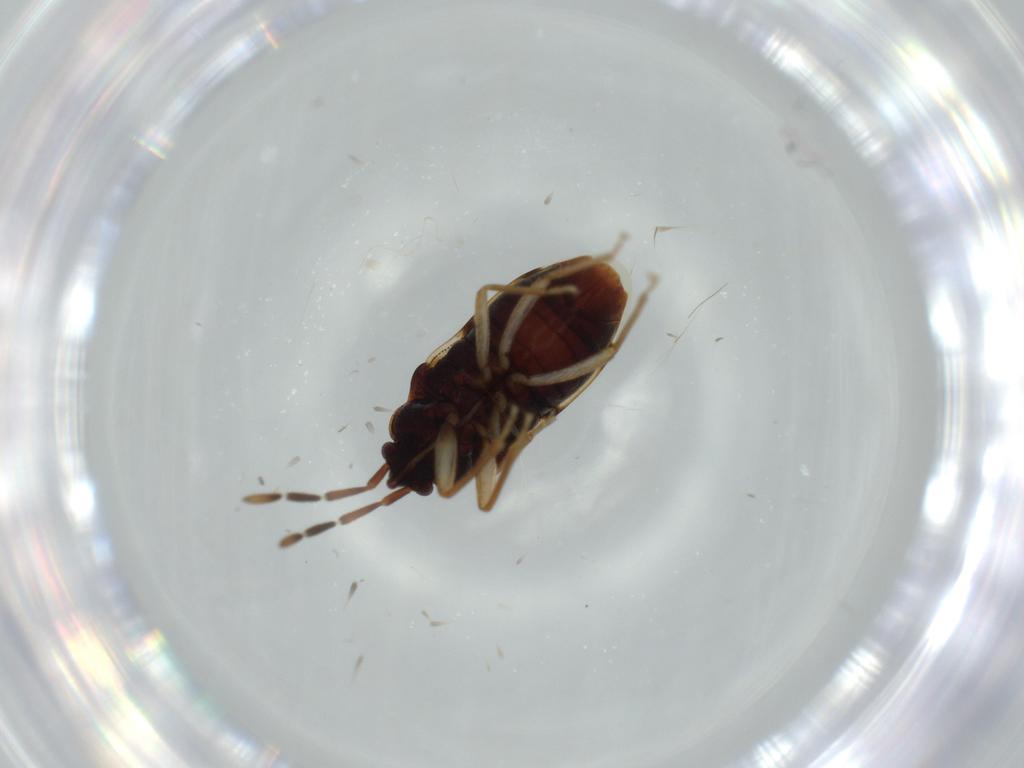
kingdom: Animalia
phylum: Arthropoda
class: Insecta
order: Hemiptera
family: Rhyparochromidae
